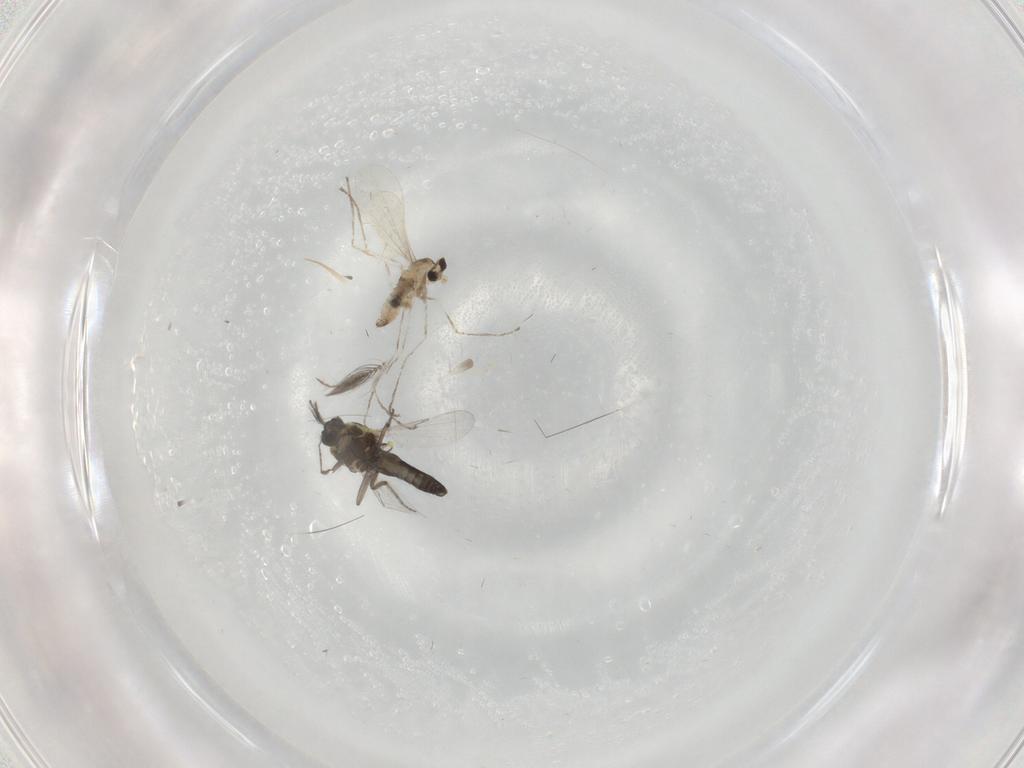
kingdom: Animalia
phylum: Arthropoda
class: Insecta
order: Diptera
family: Cecidomyiidae
